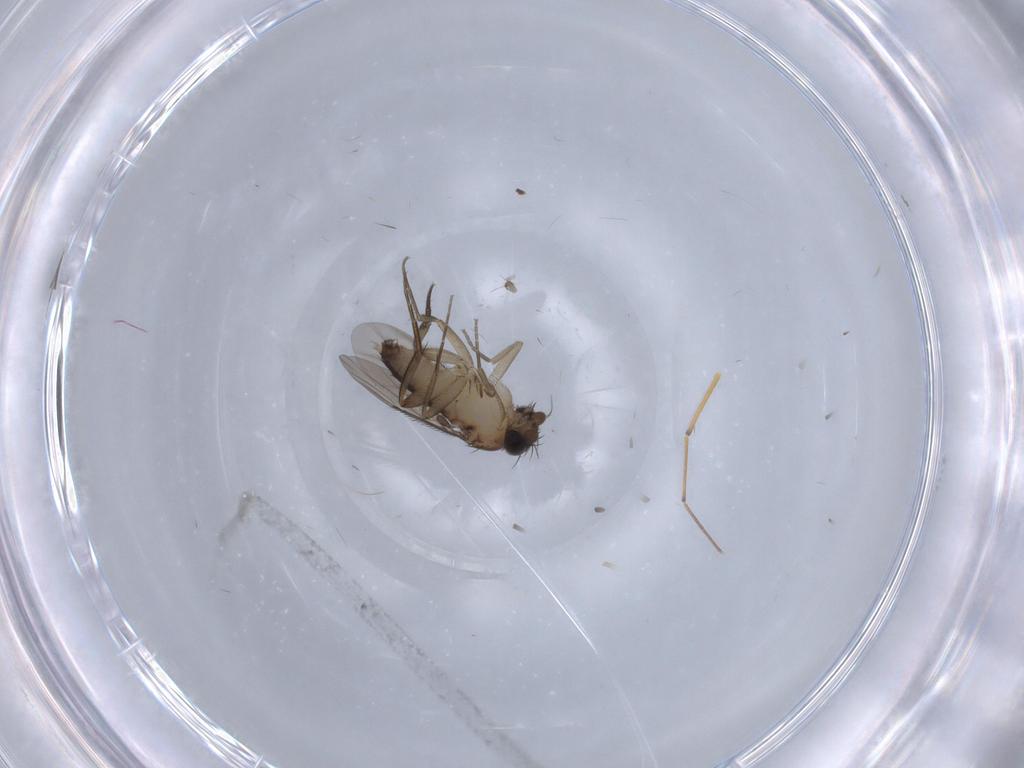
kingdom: Animalia
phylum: Arthropoda
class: Insecta
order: Diptera
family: Phoridae
